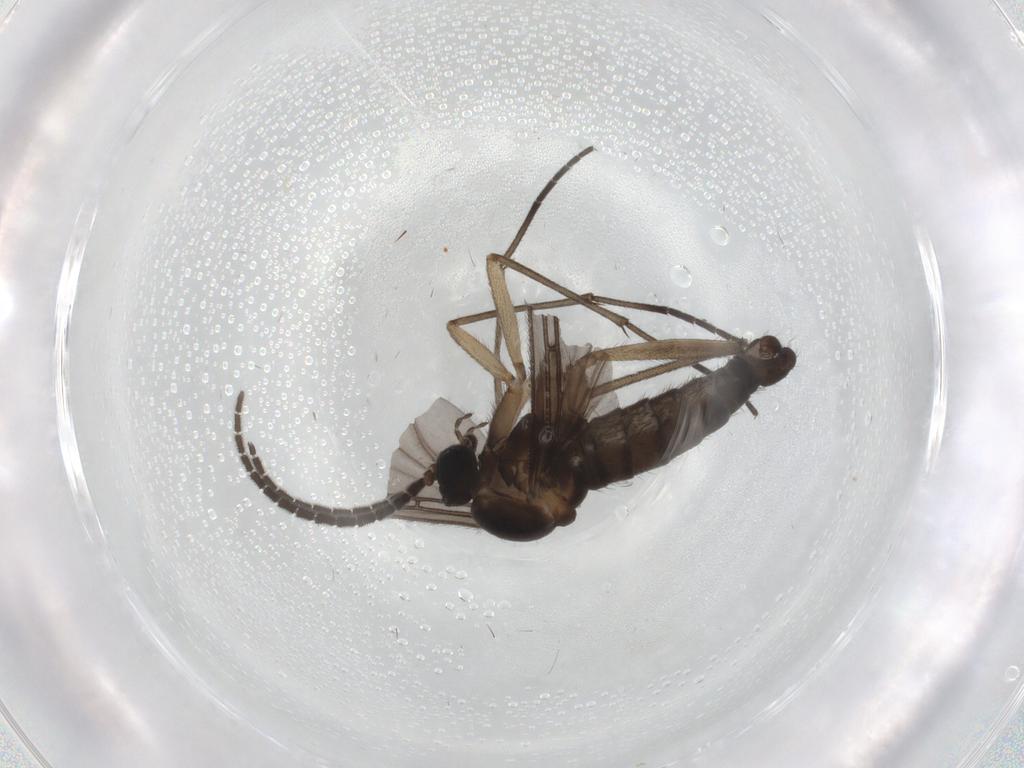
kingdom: Animalia
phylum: Arthropoda
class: Insecta
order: Diptera
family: Sciaridae
